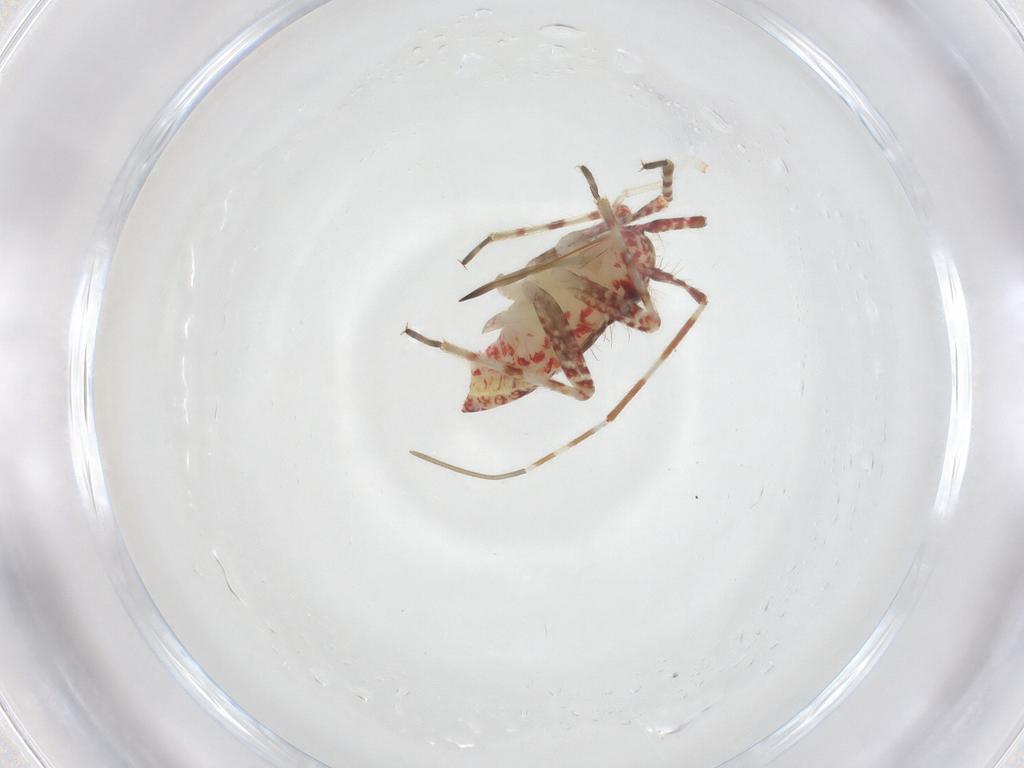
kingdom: Animalia
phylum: Arthropoda
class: Insecta
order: Hemiptera
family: Miridae
